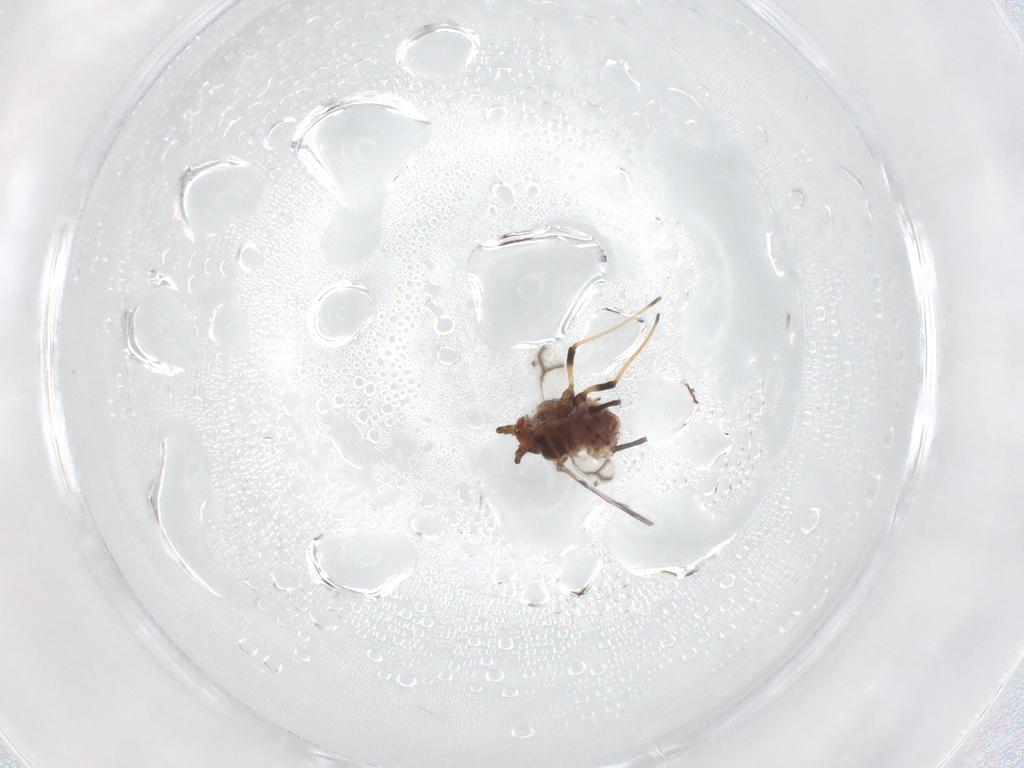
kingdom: Animalia
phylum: Arthropoda
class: Insecta
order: Hemiptera
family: Aphididae
